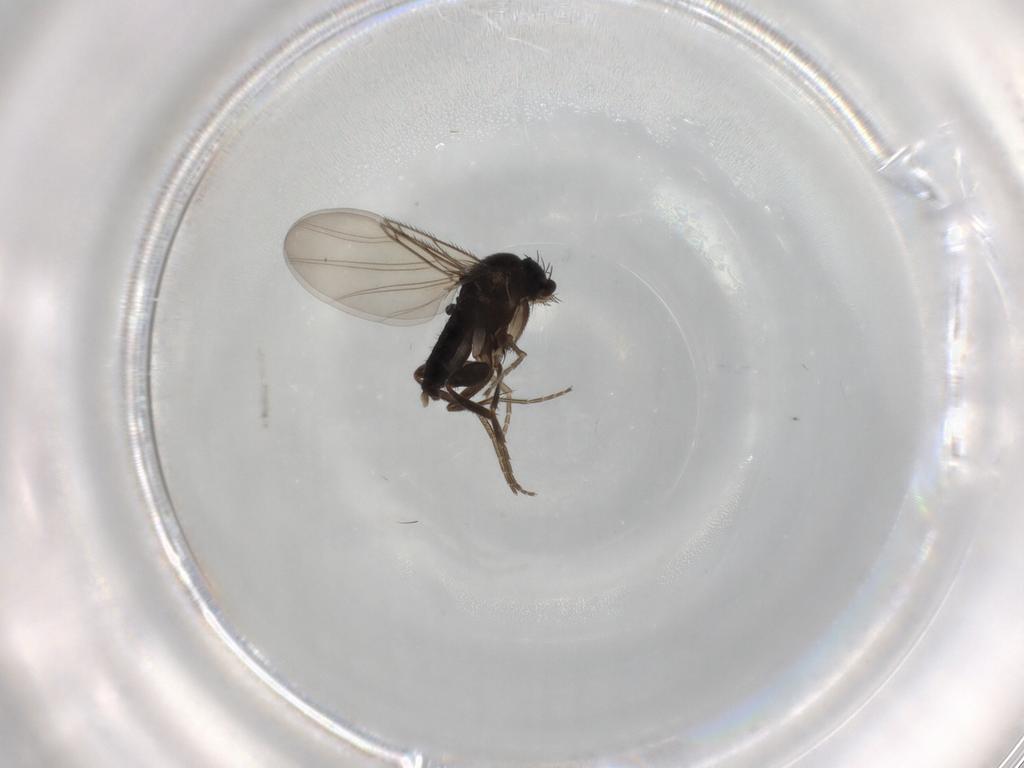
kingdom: Animalia
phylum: Arthropoda
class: Insecta
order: Diptera
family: Phoridae
